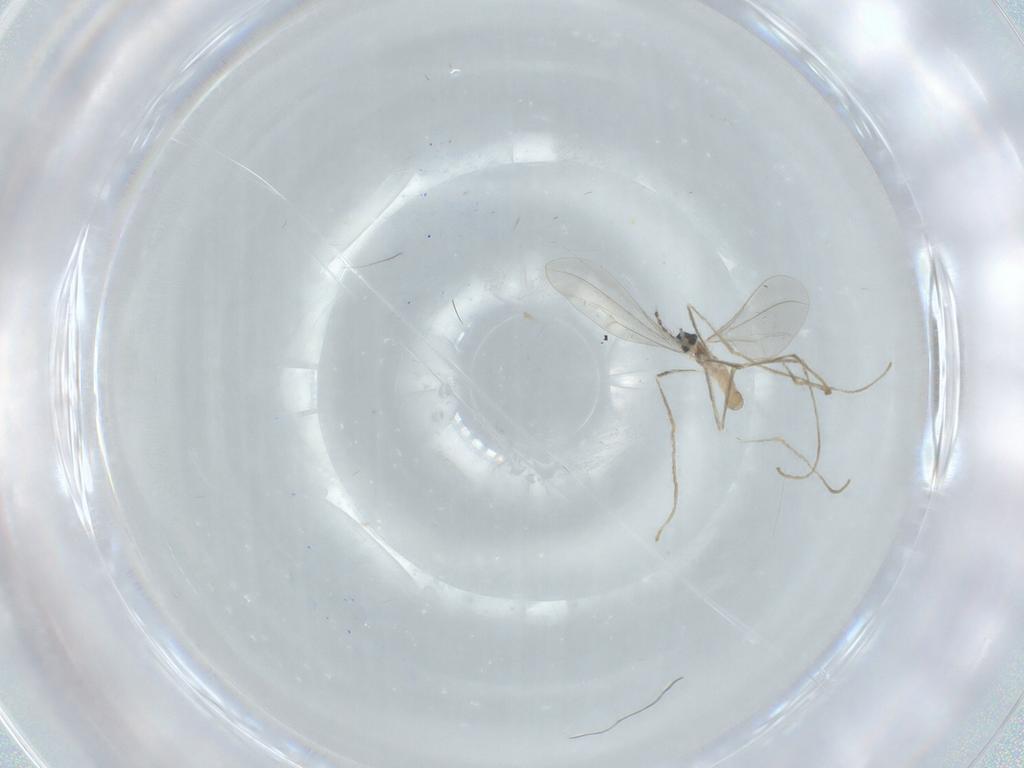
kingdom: Animalia
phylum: Arthropoda
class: Insecta
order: Diptera
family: Cecidomyiidae
